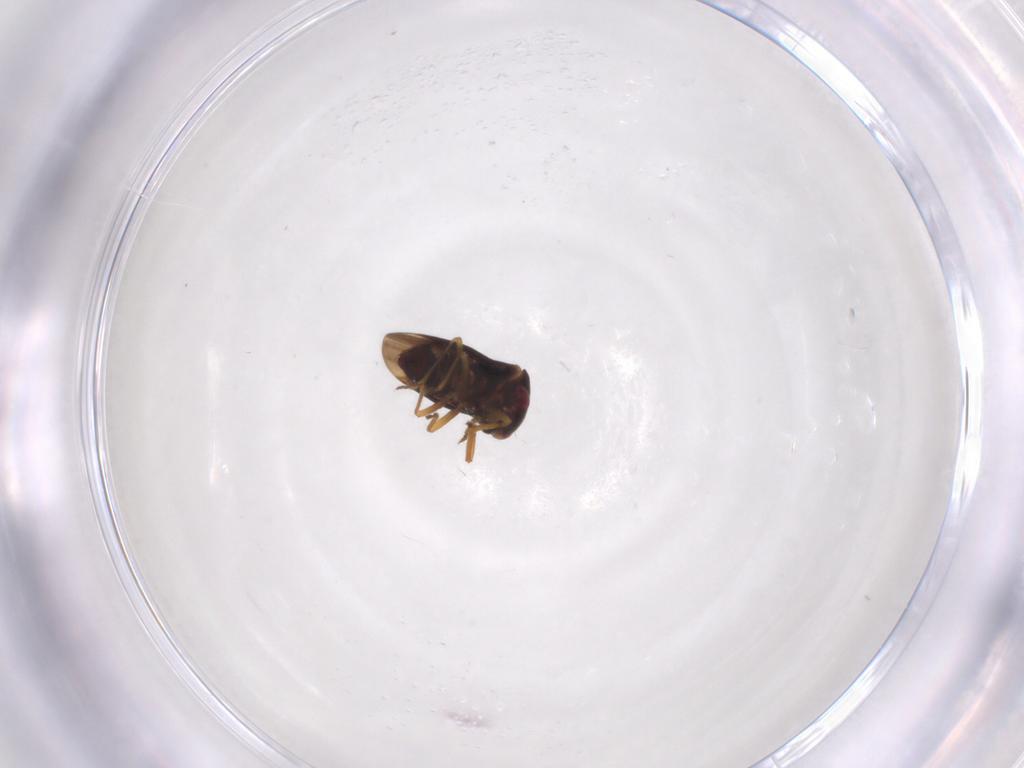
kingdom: Animalia
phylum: Arthropoda
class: Insecta
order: Hemiptera
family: Schizopteridae
